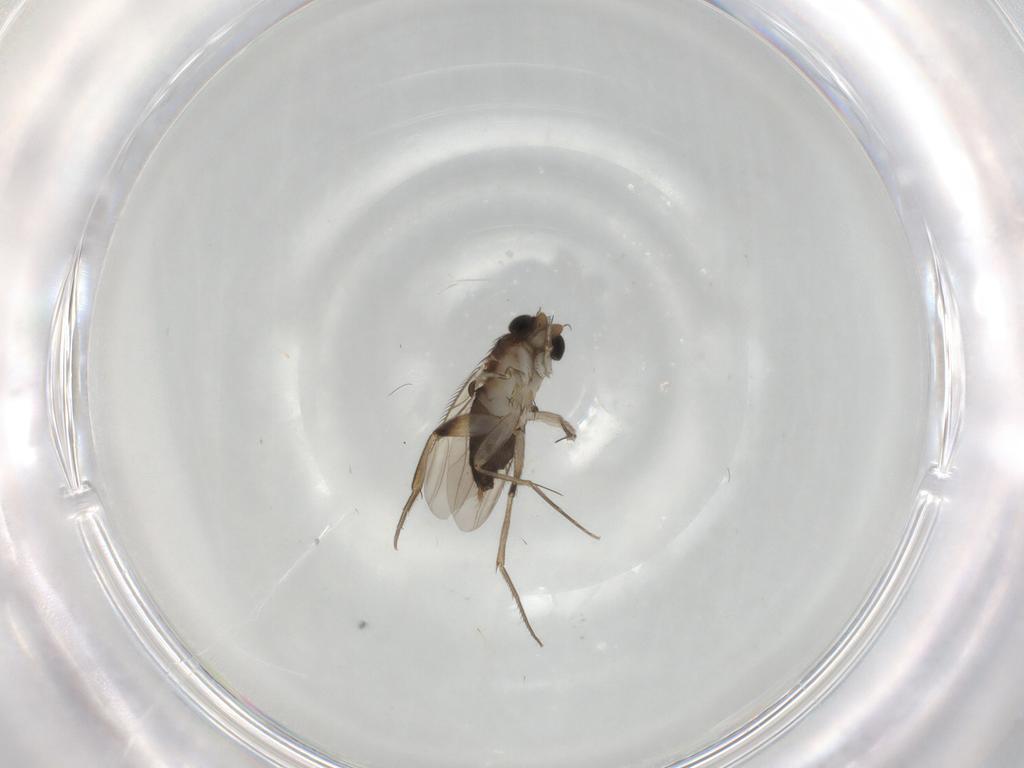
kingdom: Animalia
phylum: Arthropoda
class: Insecta
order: Diptera
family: Phoridae
